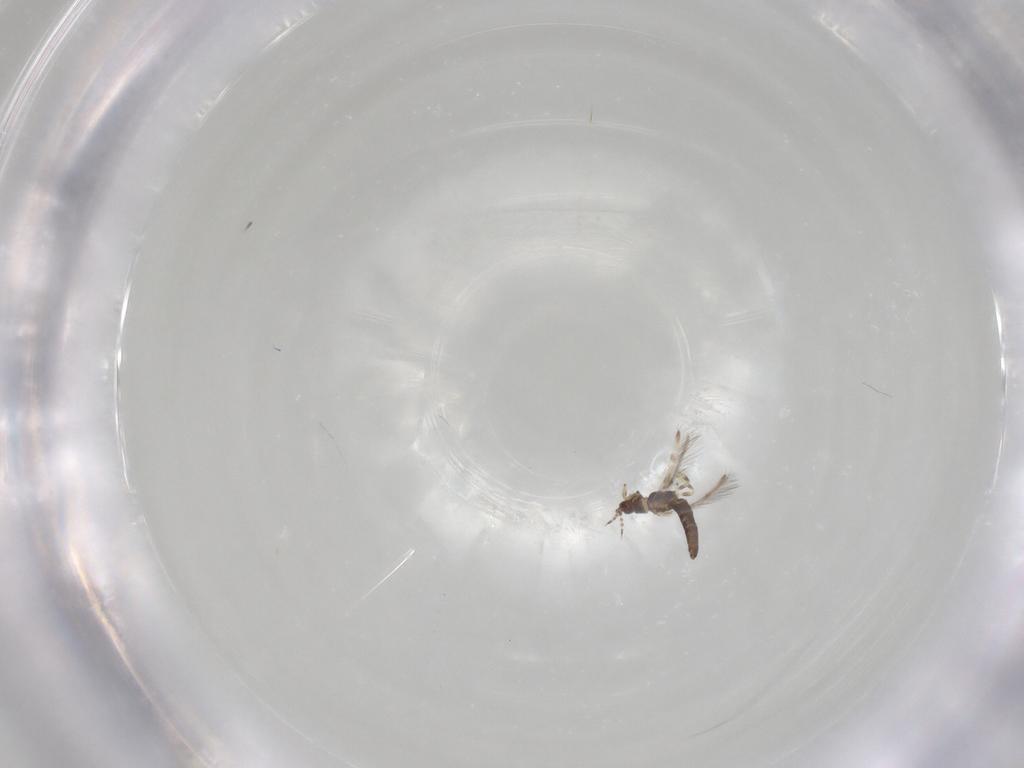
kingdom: Animalia
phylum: Arthropoda
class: Insecta
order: Thysanoptera
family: Thripidae
